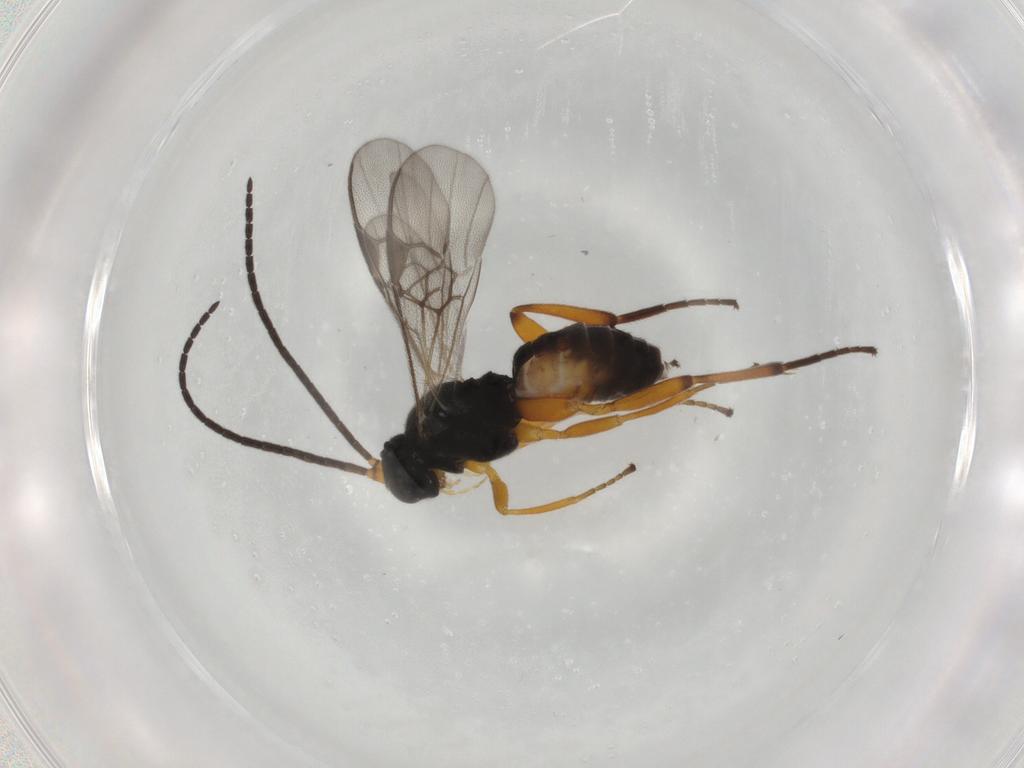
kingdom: Animalia
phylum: Arthropoda
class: Insecta
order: Hymenoptera
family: Braconidae
